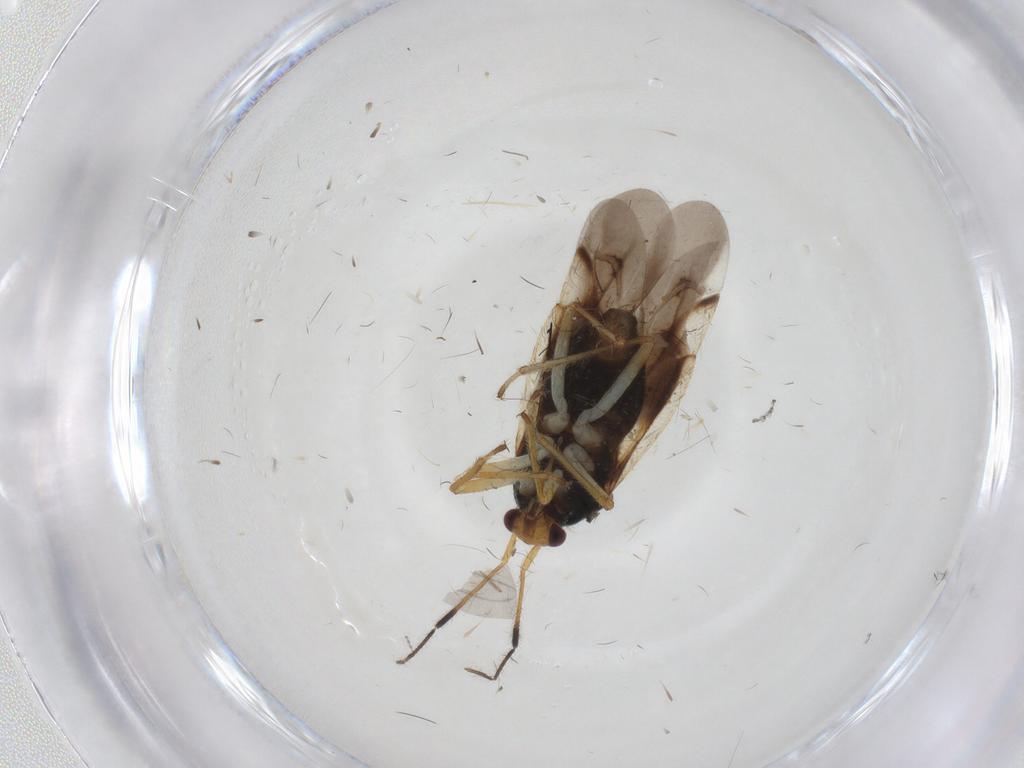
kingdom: Animalia
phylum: Arthropoda
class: Insecta
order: Hemiptera
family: Miridae
